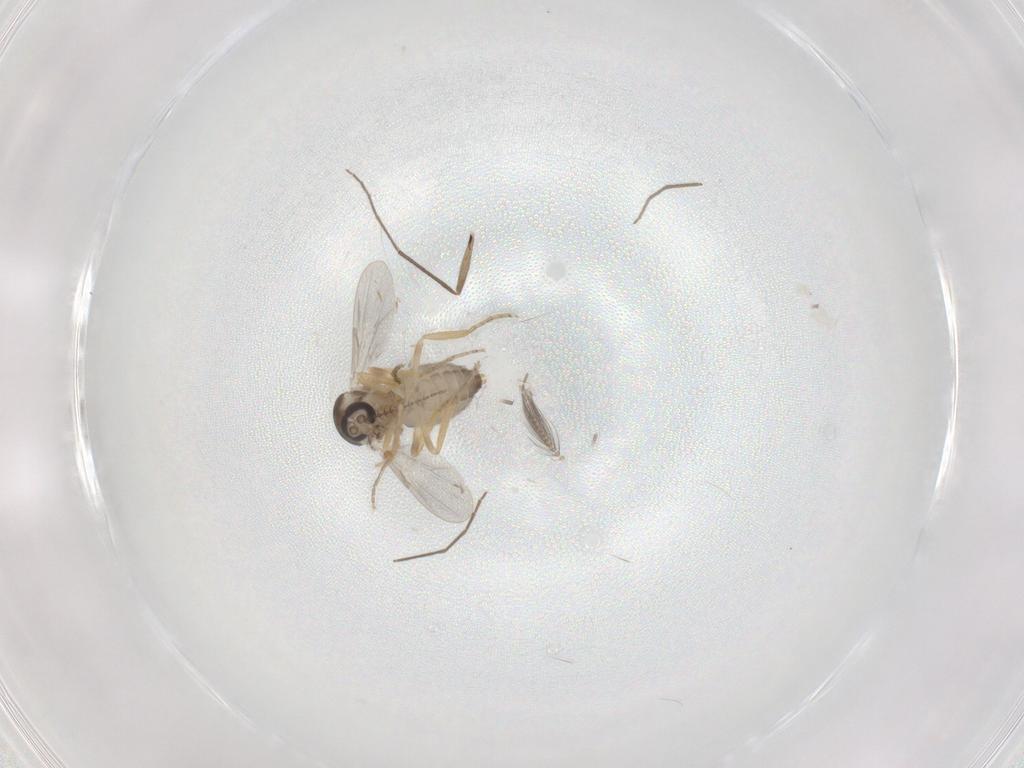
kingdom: Animalia
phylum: Arthropoda
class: Insecta
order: Diptera
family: Ceratopogonidae
